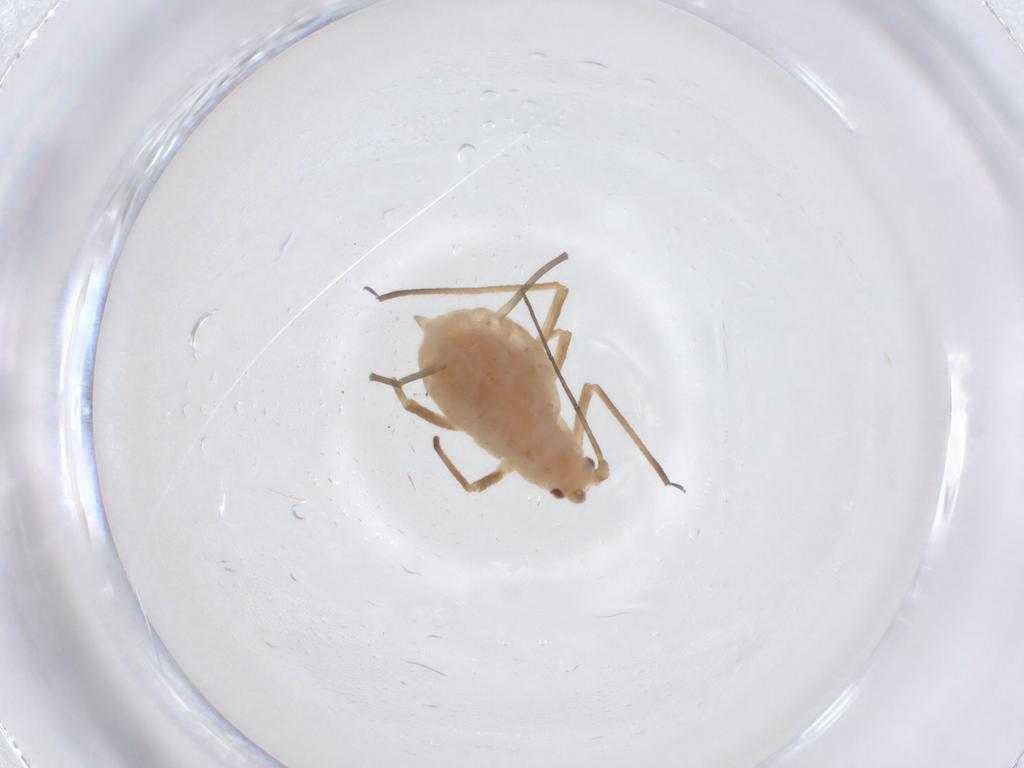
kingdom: Animalia
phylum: Arthropoda
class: Insecta
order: Hemiptera
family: Aphididae
